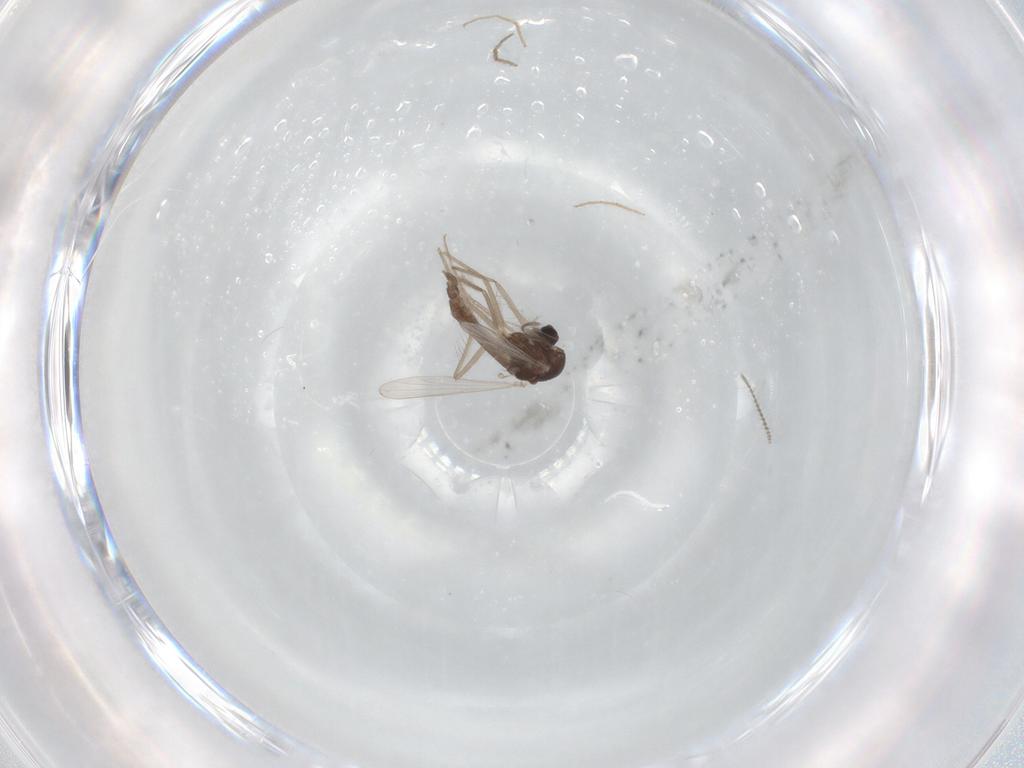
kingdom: Animalia
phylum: Arthropoda
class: Insecta
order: Diptera
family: Chironomidae
